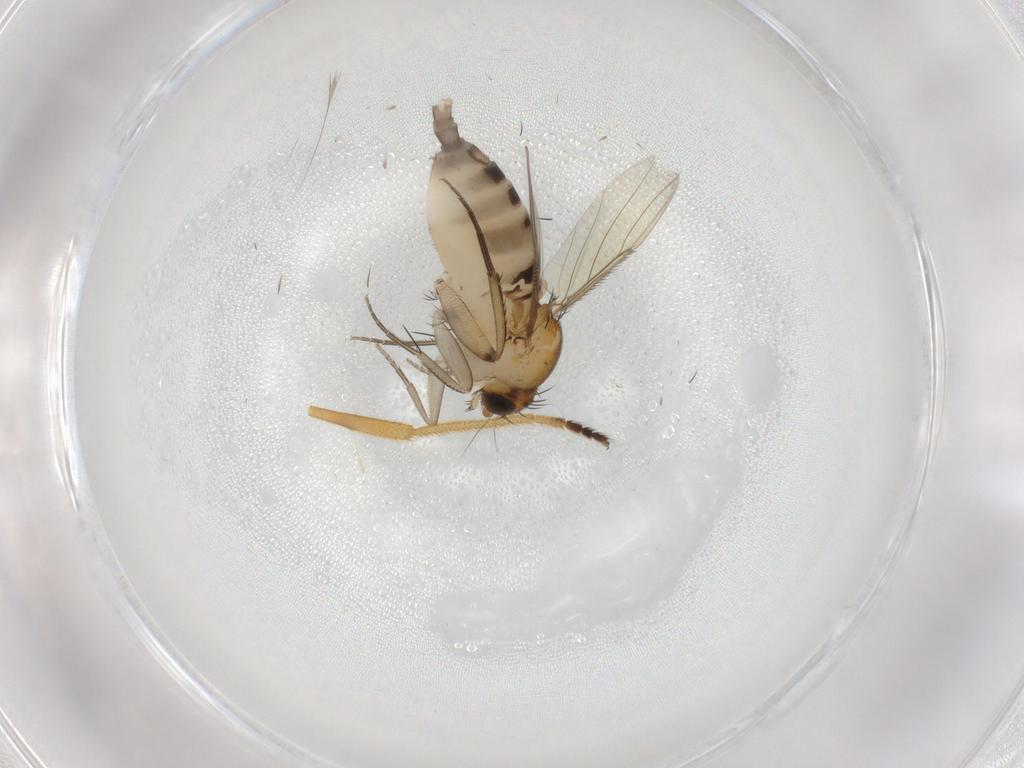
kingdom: Animalia
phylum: Arthropoda
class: Insecta
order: Diptera
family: Phoridae
